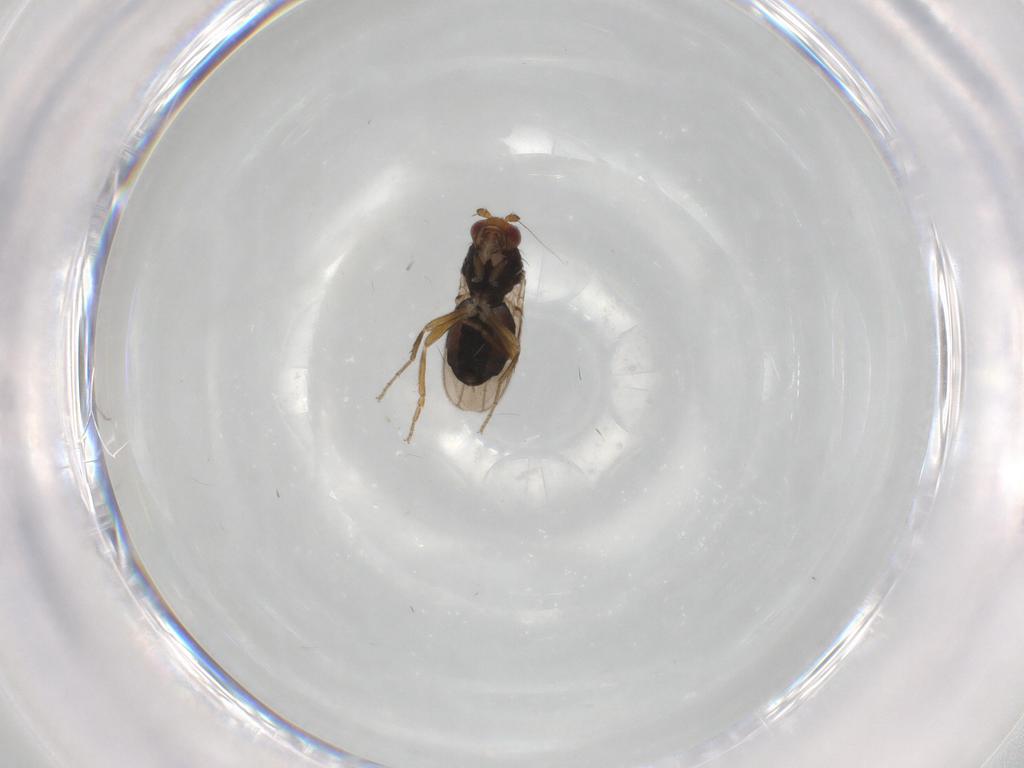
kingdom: Animalia
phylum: Arthropoda
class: Insecta
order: Diptera
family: Sphaeroceridae
